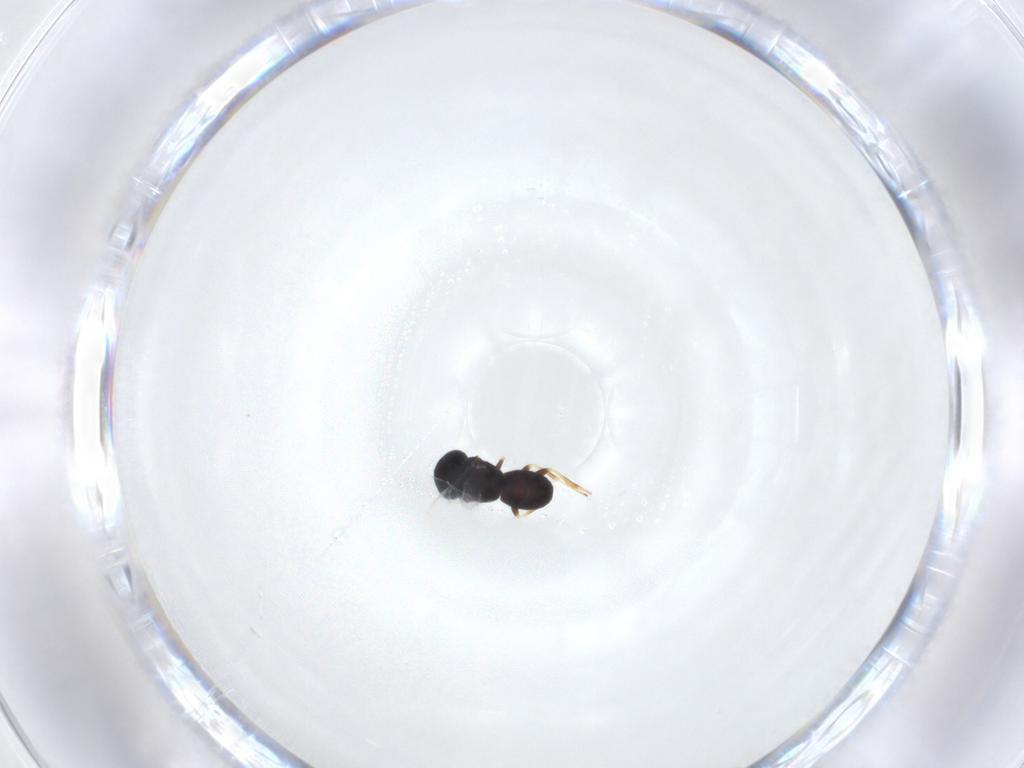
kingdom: Animalia
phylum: Arthropoda
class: Insecta
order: Hymenoptera
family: Scelionidae
